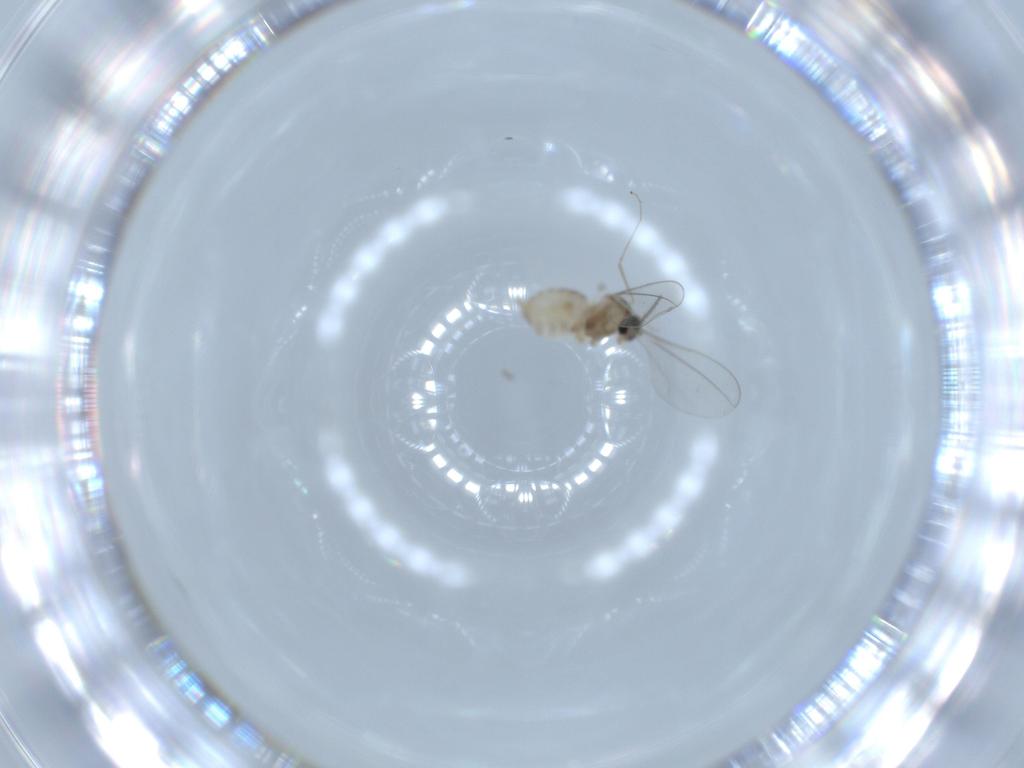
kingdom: Animalia
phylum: Arthropoda
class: Insecta
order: Diptera
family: Cecidomyiidae
